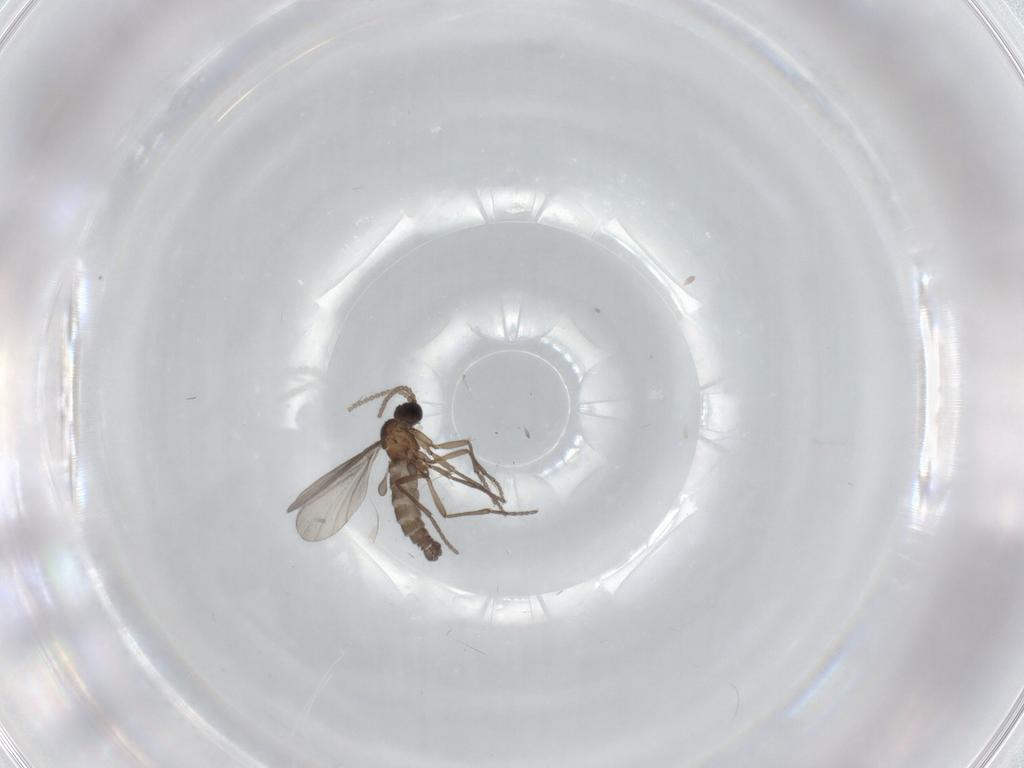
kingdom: Animalia
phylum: Arthropoda
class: Insecta
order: Diptera
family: Sciaridae
